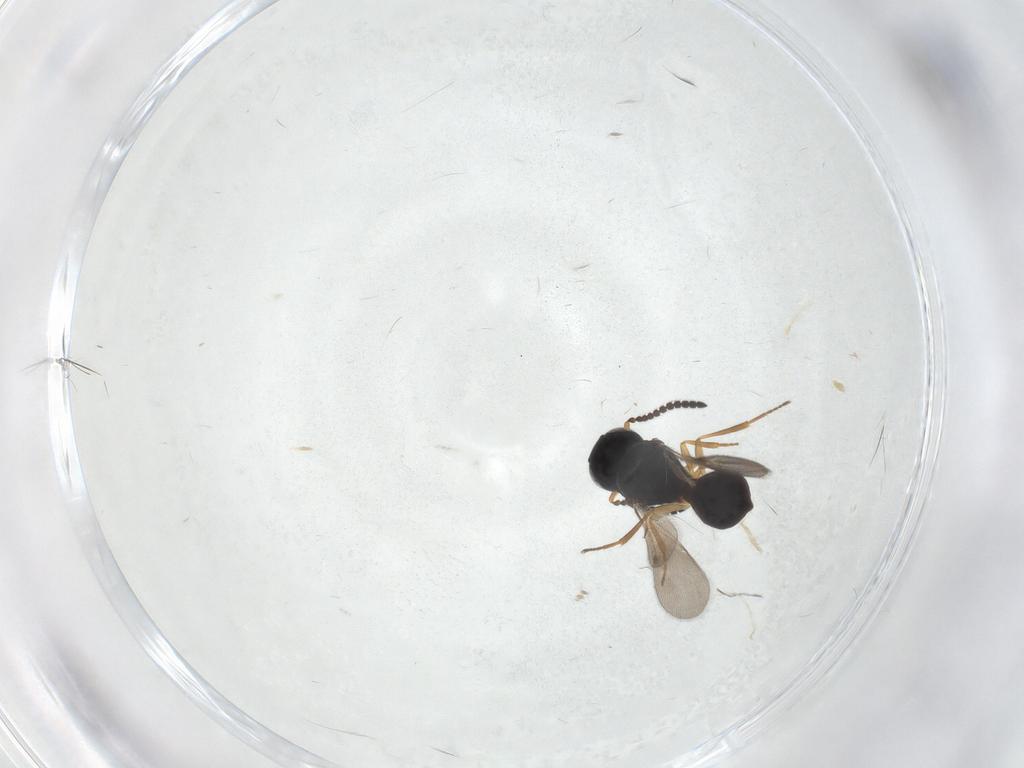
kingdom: Animalia
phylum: Arthropoda
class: Insecta
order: Hymenoptera
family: Scelionidae
